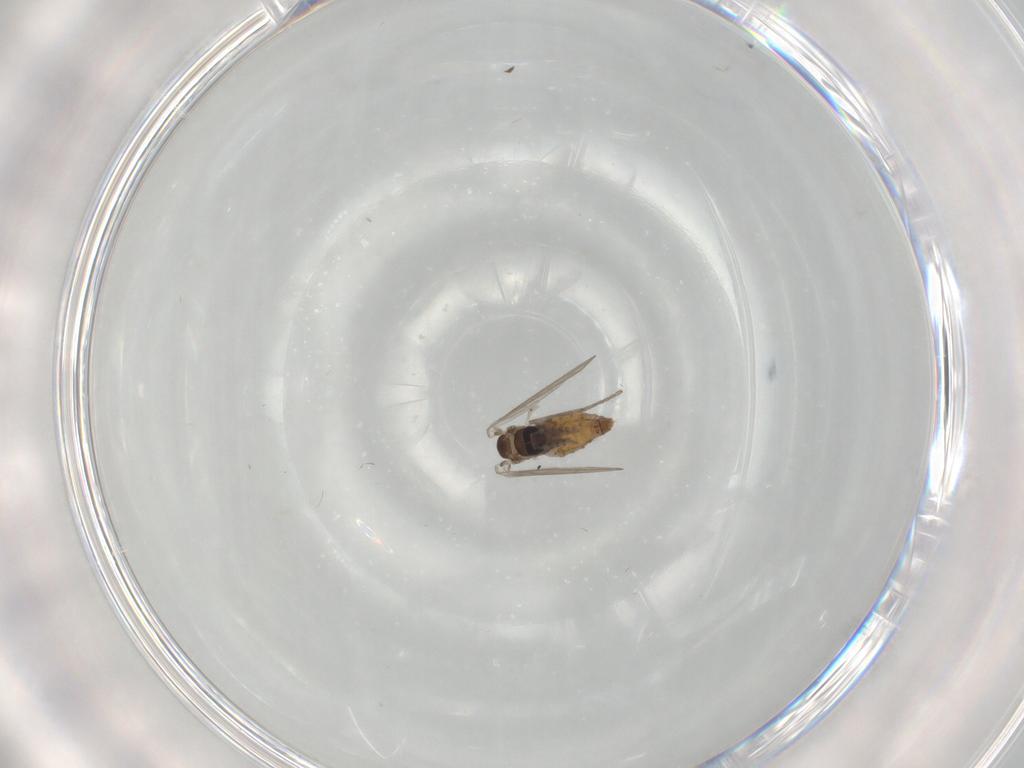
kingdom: Animalia
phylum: Arthropoda
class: Insecta
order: Diptera
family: Psychodidae
